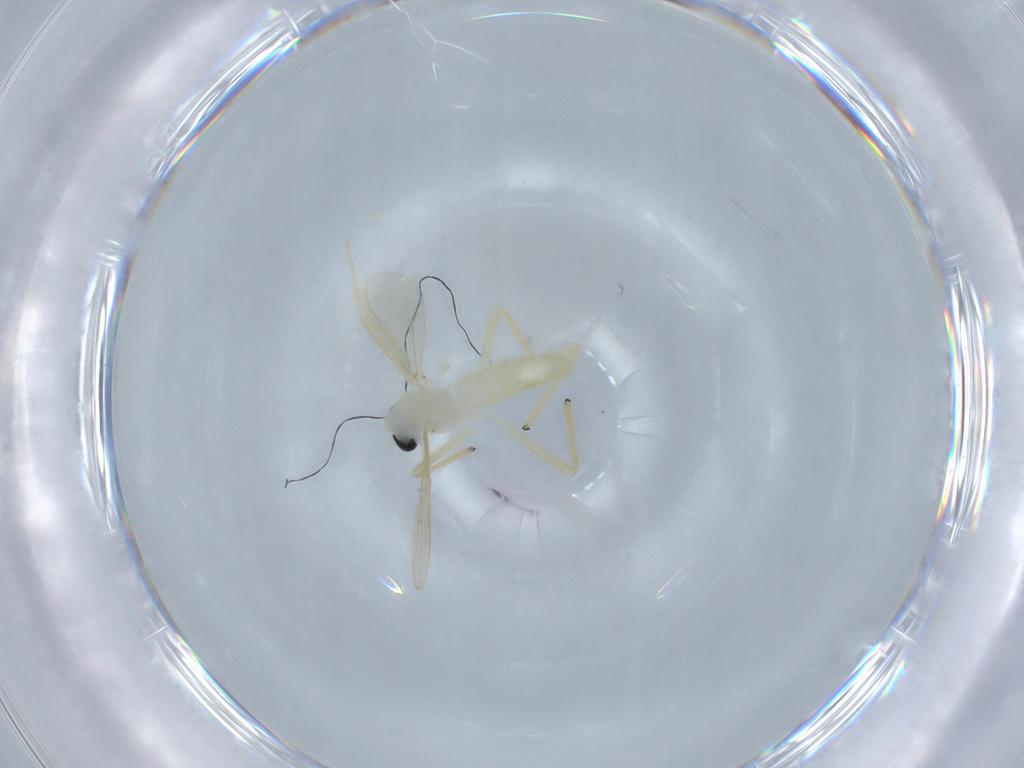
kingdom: Animalia
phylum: Arthropoda
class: Insecta
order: Diptera
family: Chironomidae
